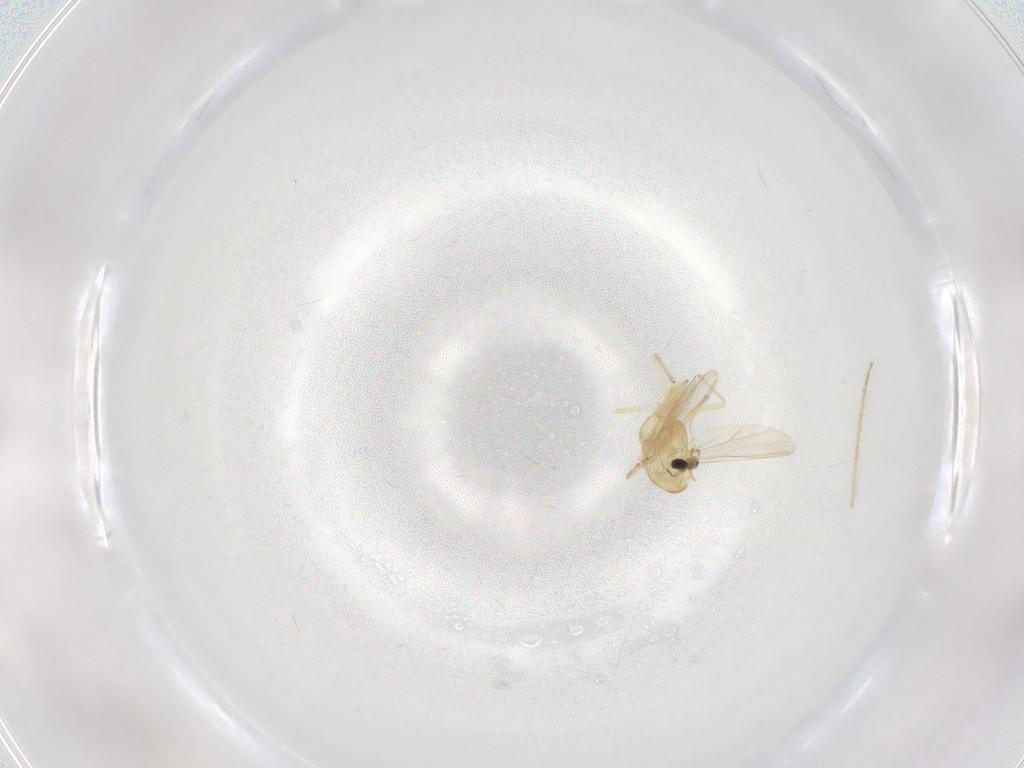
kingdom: Animalia
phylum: Arthropoda
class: Insecta
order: Diptera
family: Chironomidae
